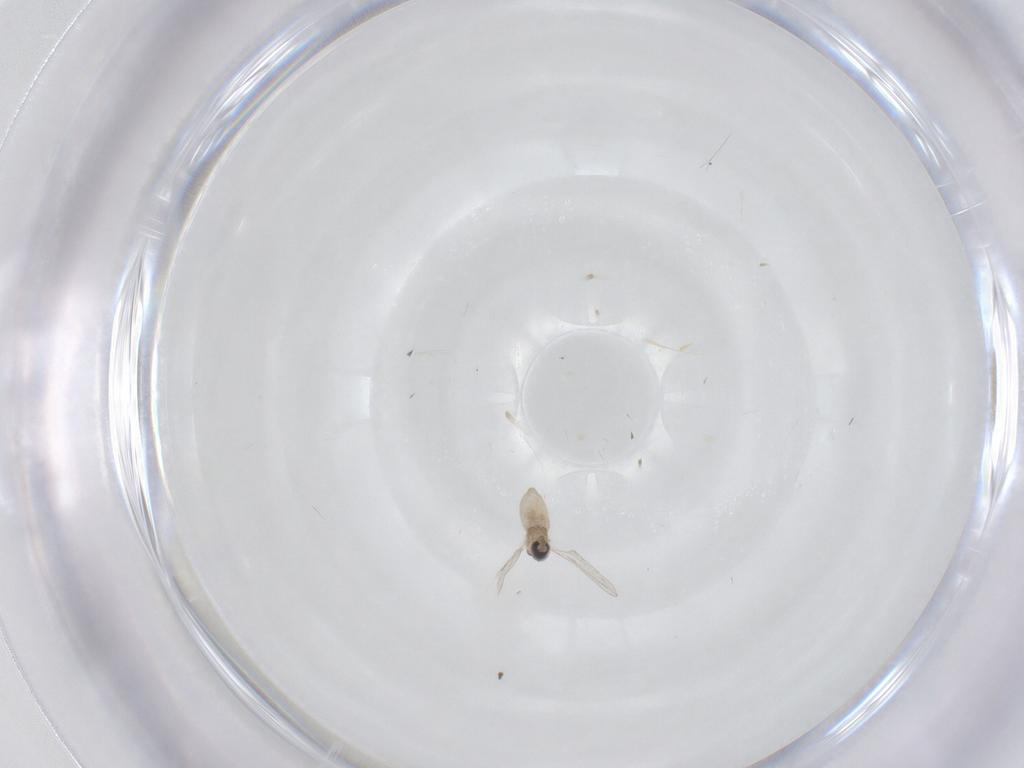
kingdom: Animalia
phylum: Arthropoda
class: Insecta
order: Diptera
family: Cecidomyiidae
